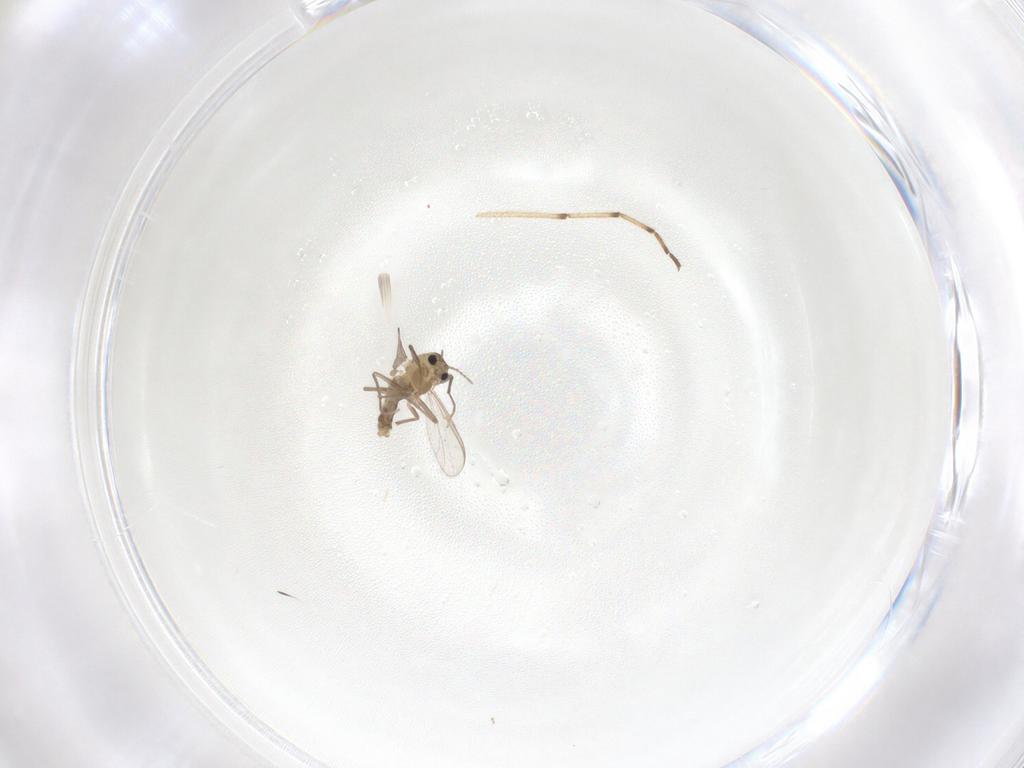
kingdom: Animalia
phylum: Arthropoda
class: Insecta
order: Diptera
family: Chironomidae
